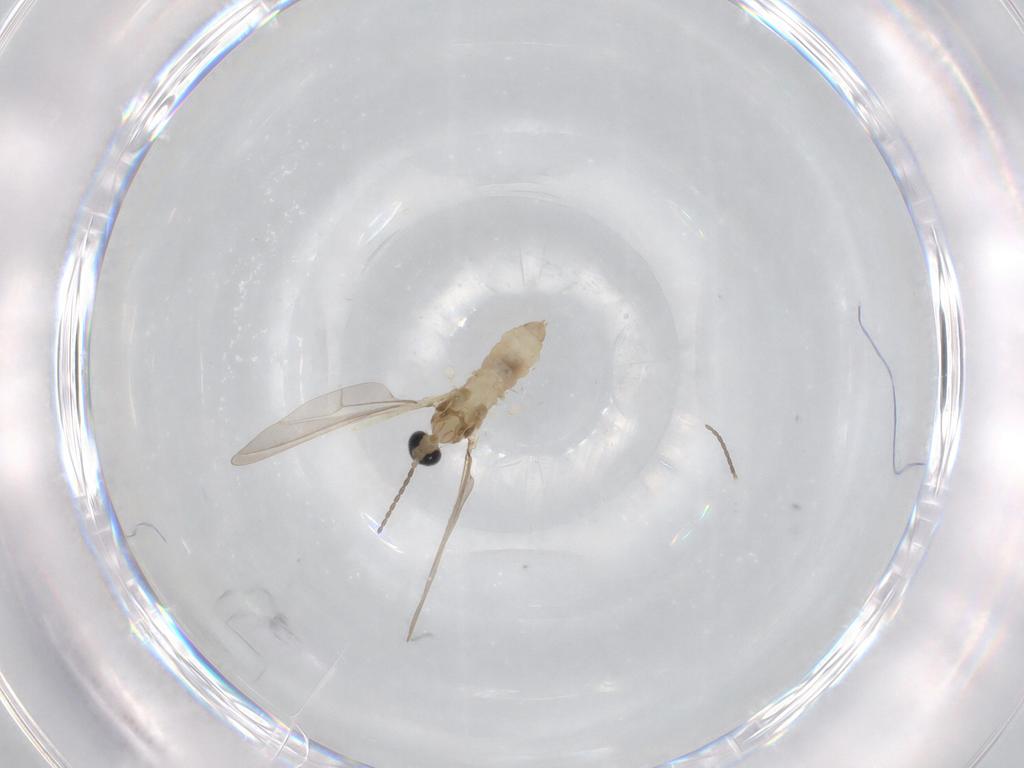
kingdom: Animalia
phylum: Arthropoda
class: Insecta
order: Diptera
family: Cecidomyiidae
